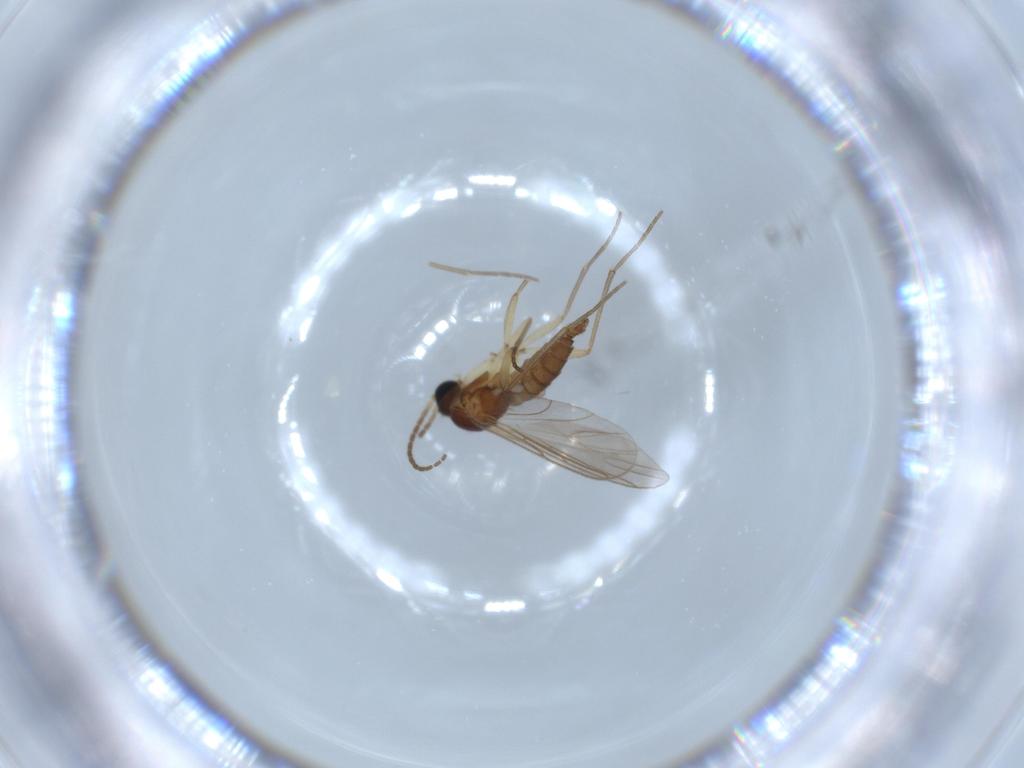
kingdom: Animalia
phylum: Arthropoda
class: Insecta
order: Diptera
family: Sciaridae
